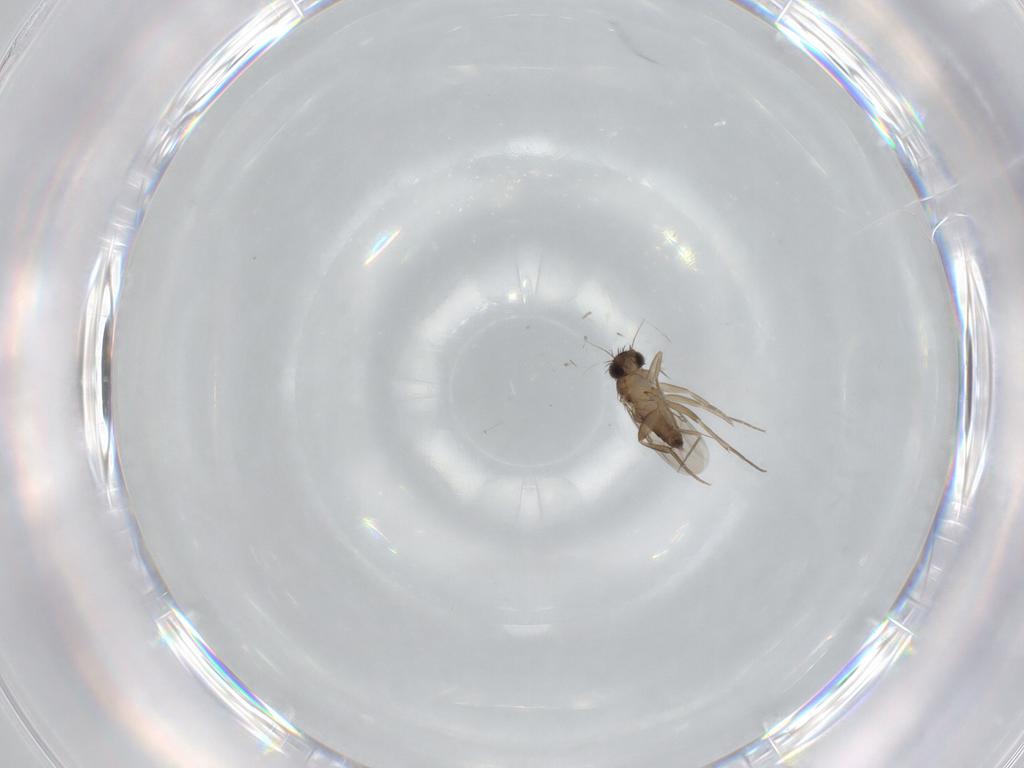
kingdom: Animalia
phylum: Arthropoda
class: Insecta
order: Diptera
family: Phoridae
